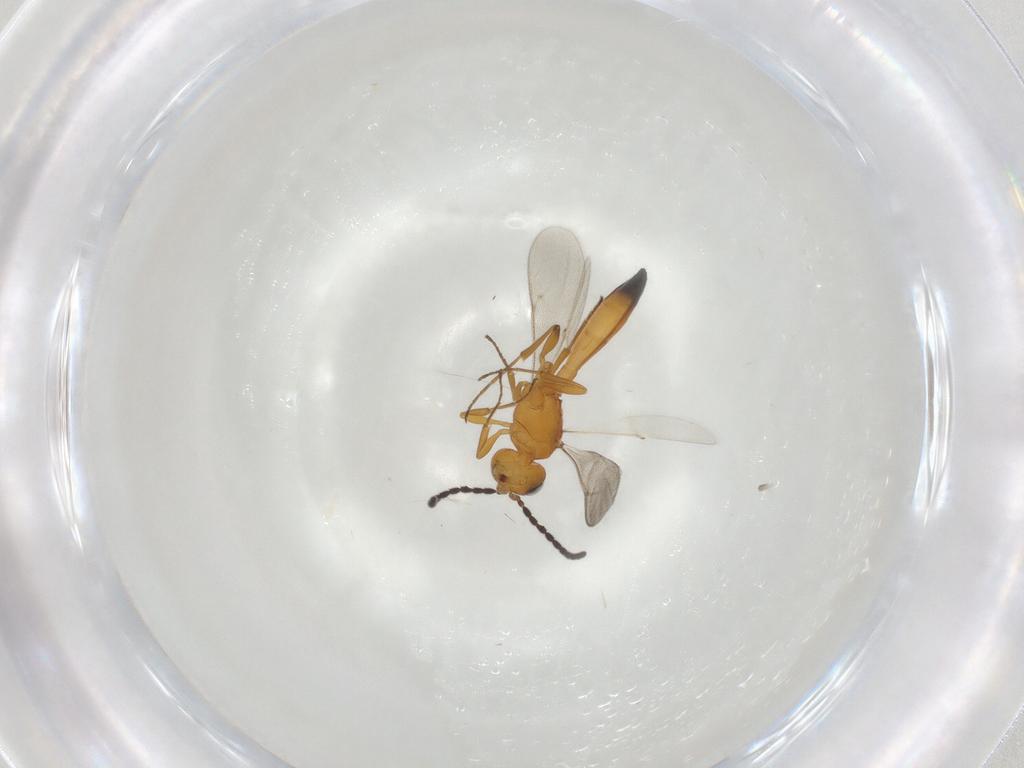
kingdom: Animalia
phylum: Arthropoda
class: Insecta
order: Hymenoptera
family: Scelionidae
